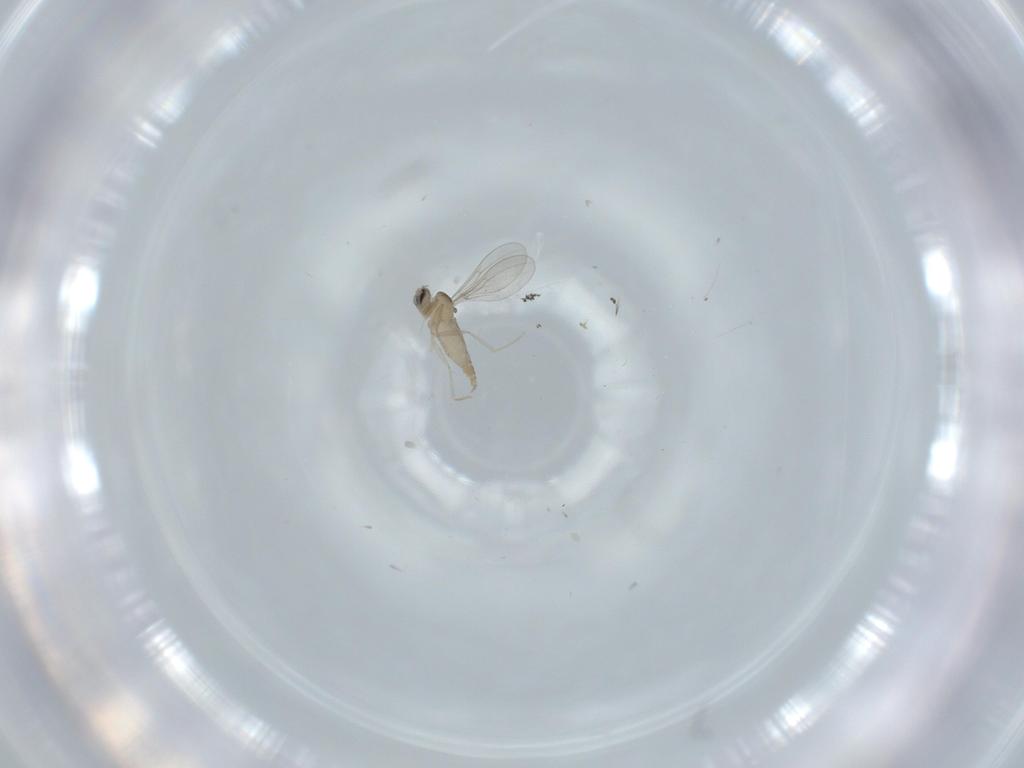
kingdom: Animalia
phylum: Arthropoda
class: Insecta
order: Diptera
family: Cecidomyiidae
